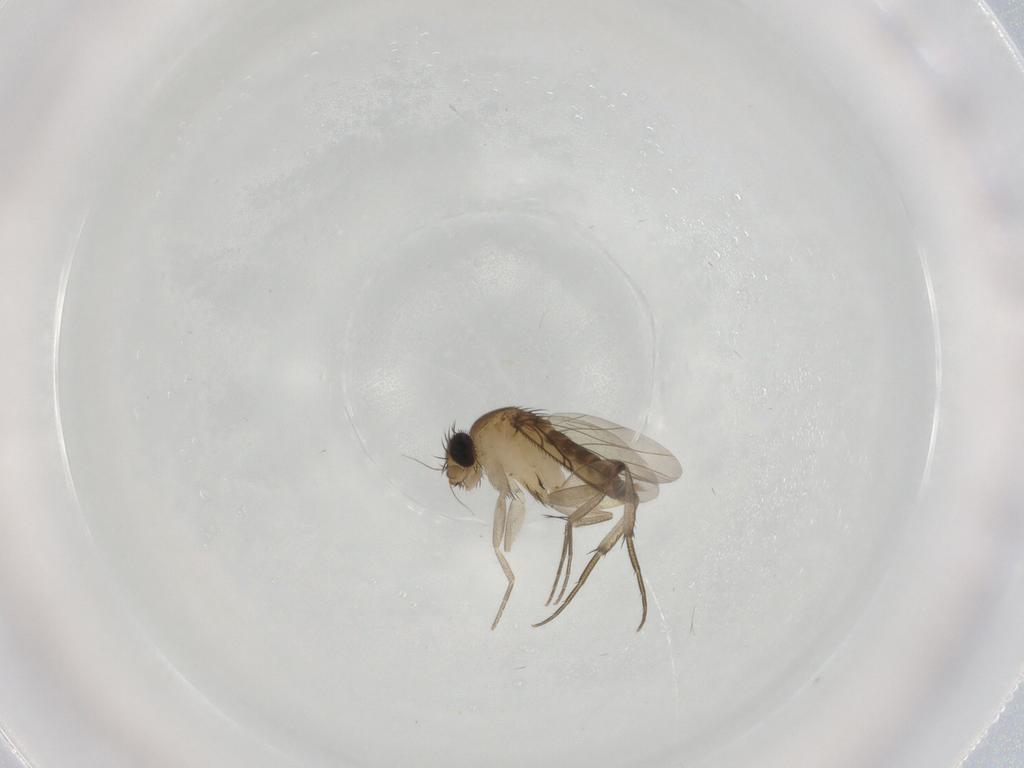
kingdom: Animalia
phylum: Arthropoda
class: Insecta
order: Diptera
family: Phoridae
